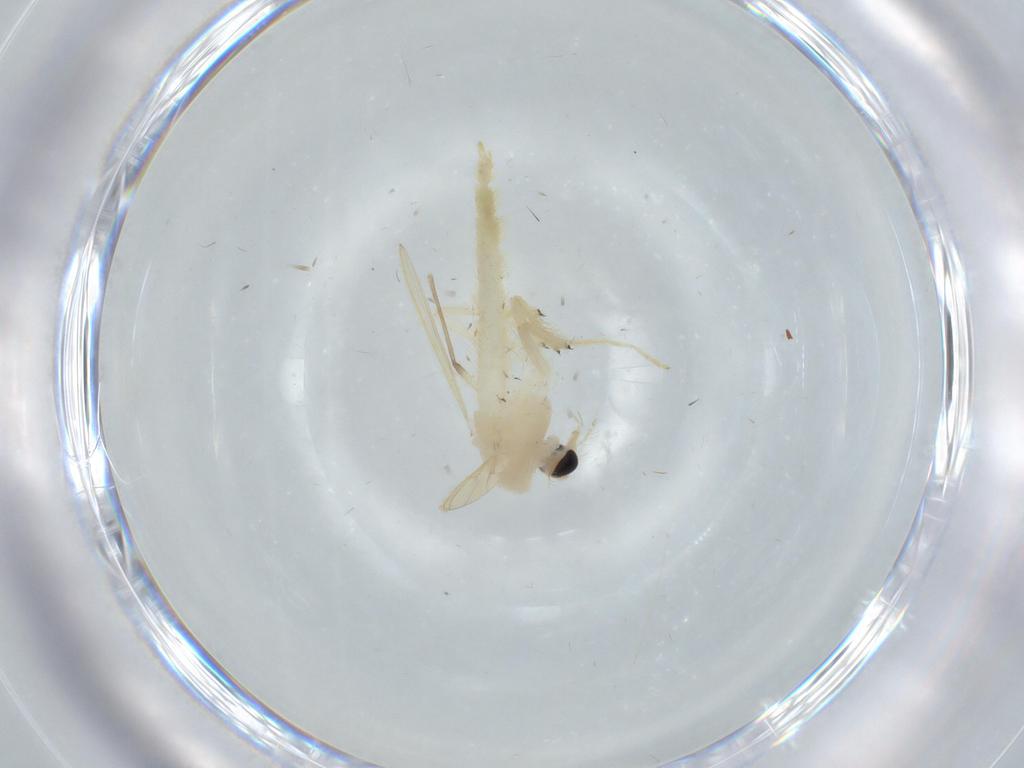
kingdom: Animalia
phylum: Arthropoda
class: Insecta
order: Diptera
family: Chironomidae
